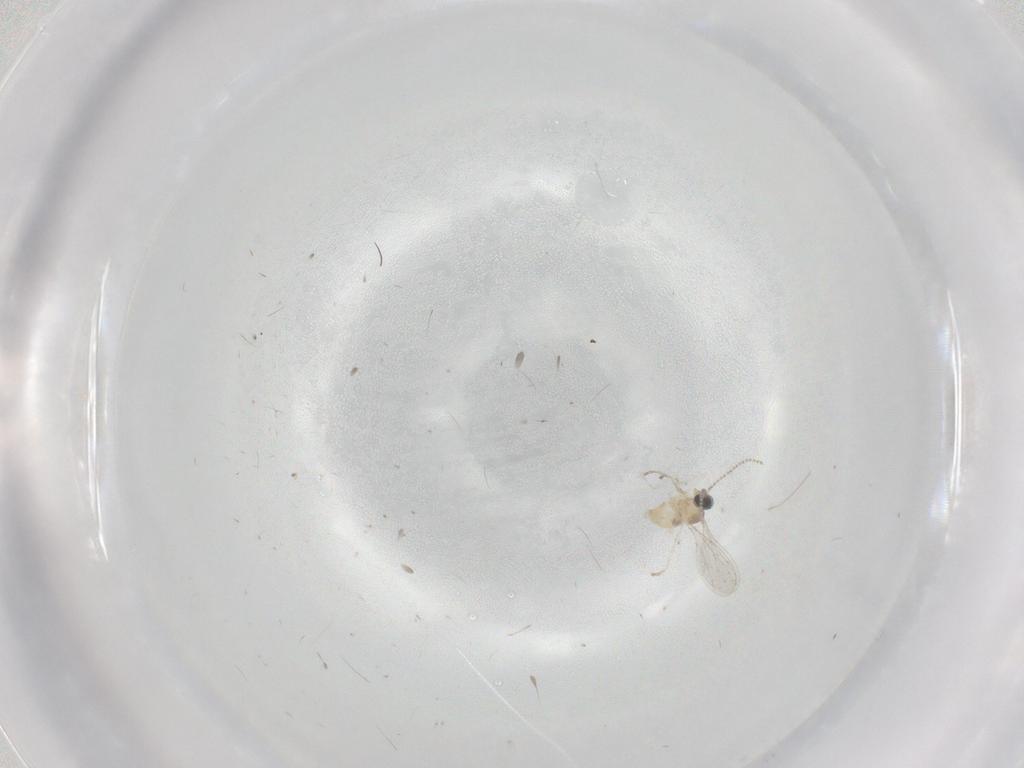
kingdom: Animalia
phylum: Arthropoda
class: Insecta
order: Diptera
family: Cecidomyiidae
